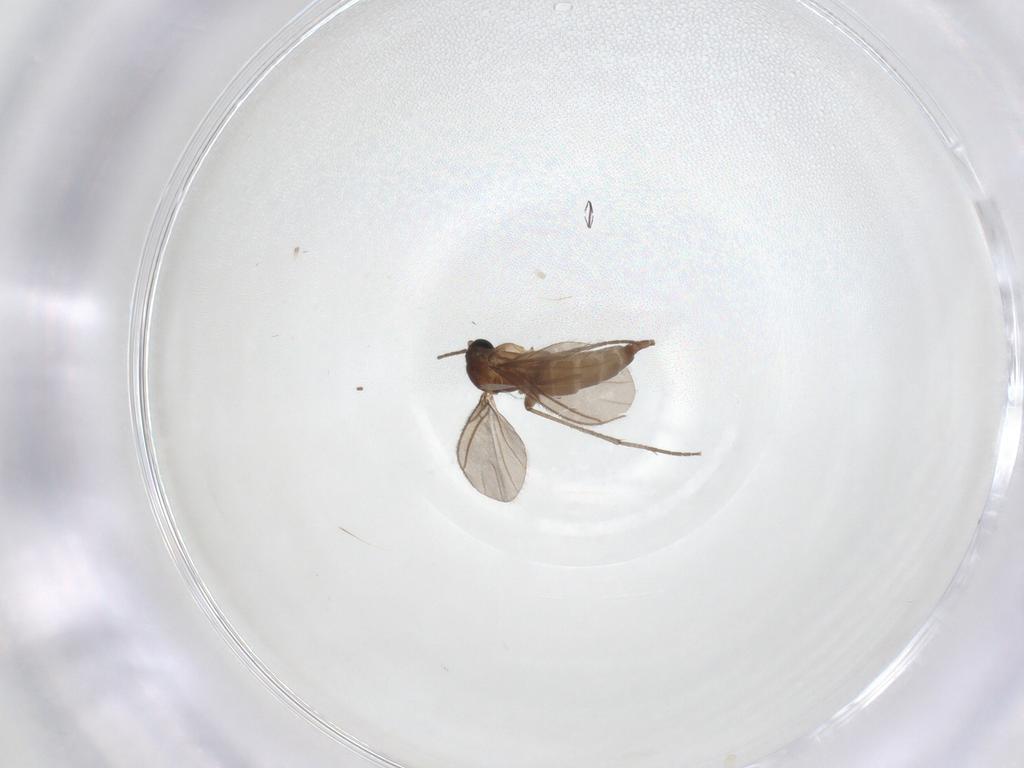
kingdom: Animalia
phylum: Arthropoda
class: Insecta
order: Diptera
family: Sciaridae
